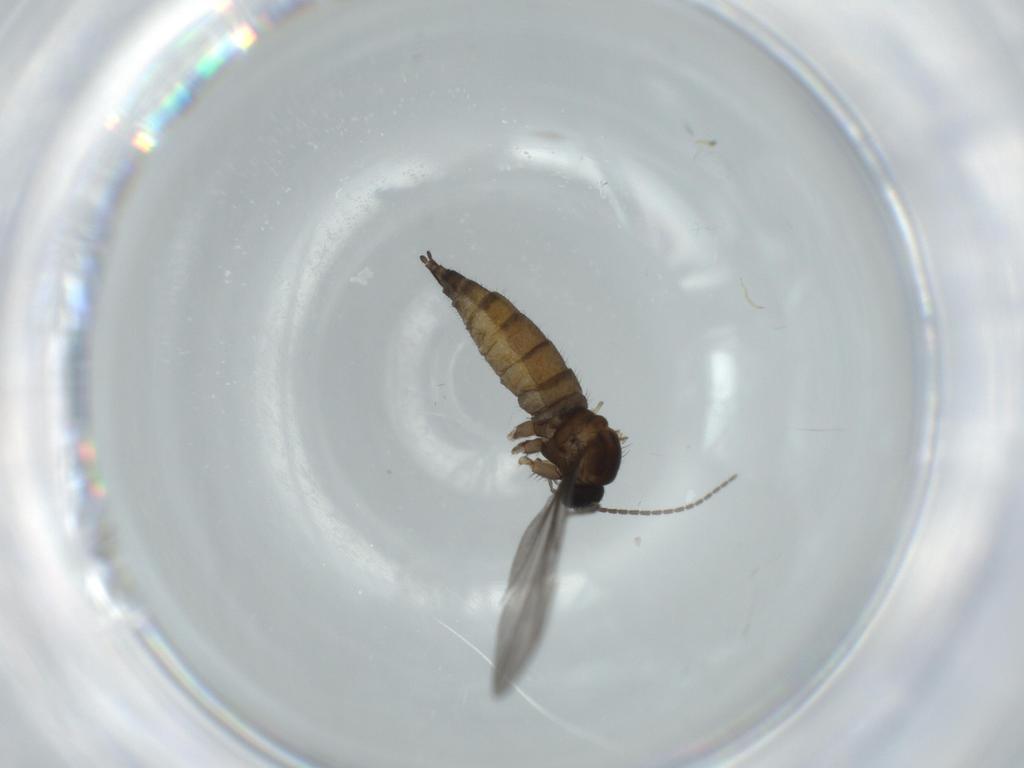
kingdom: Animalia
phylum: Arthropoda
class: Insecta
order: Diptera
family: Sciaridae
